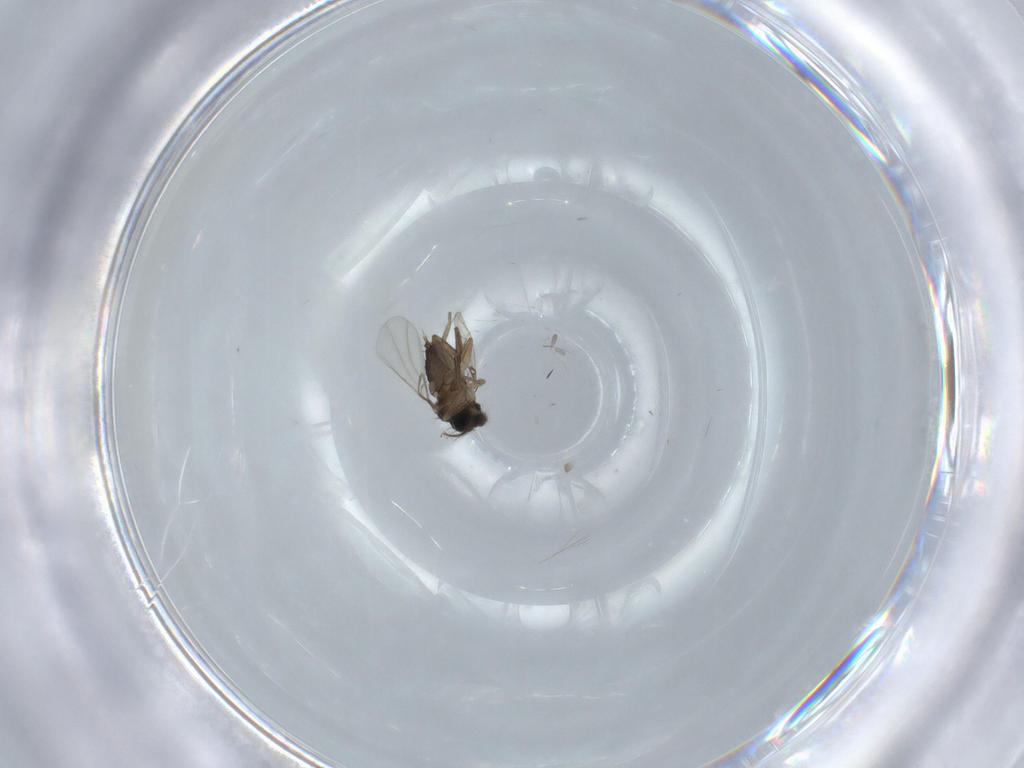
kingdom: Animalia
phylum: Arthropoda
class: Insecta
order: Diptera
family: Phoridae
